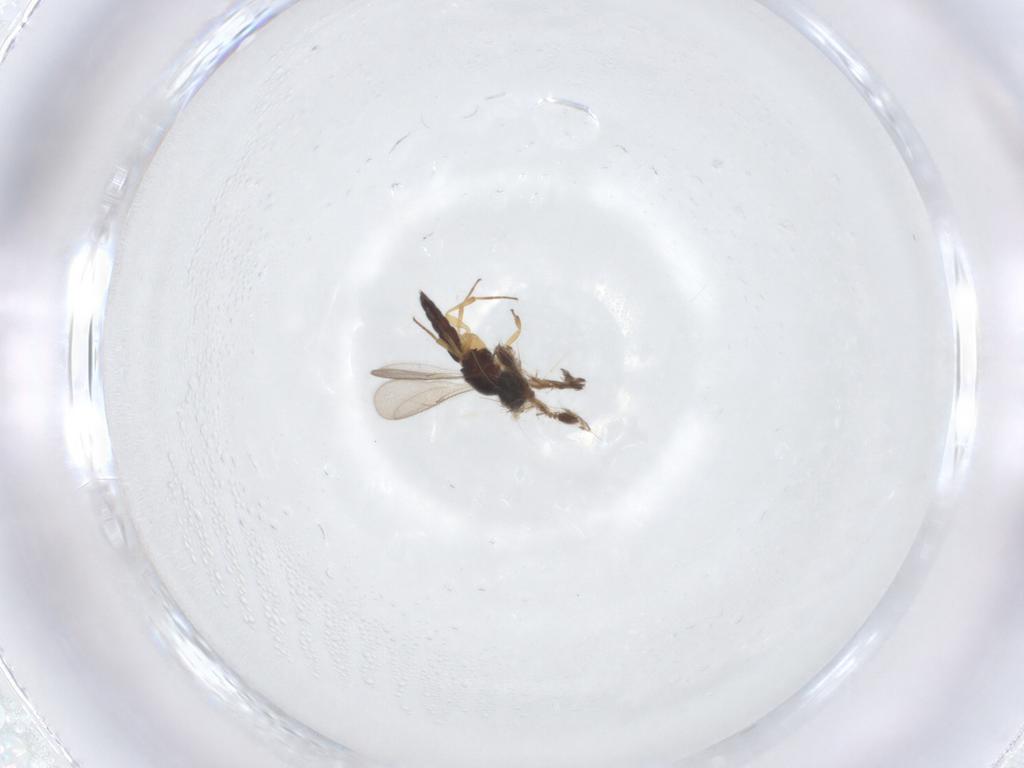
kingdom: Animalia
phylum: Arthropoda
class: Insecta
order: Hymenoptera
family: Scelionidae
